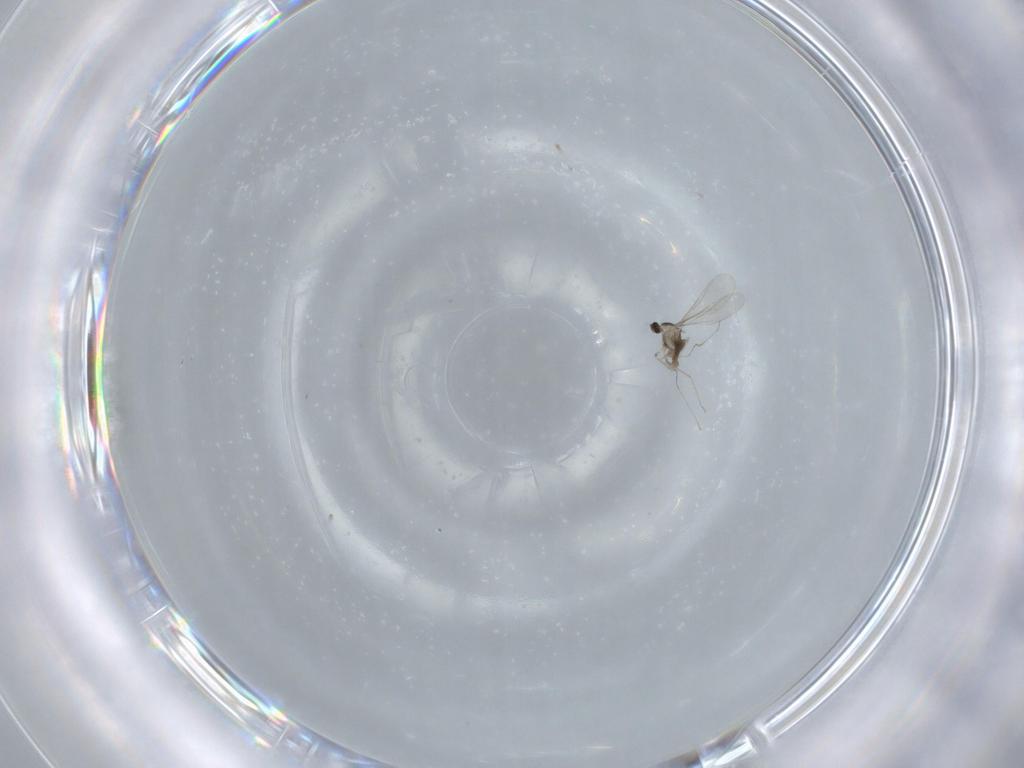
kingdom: Animalia
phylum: Arthropoda
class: Insecta
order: Diptera
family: Cecidomyiidae
